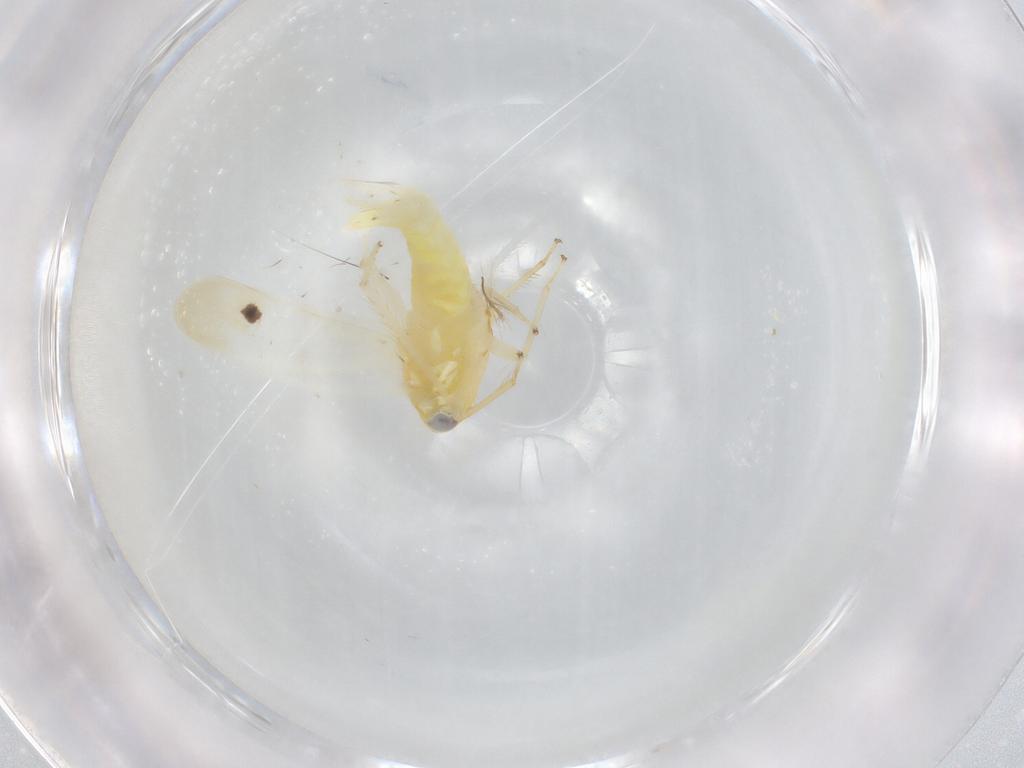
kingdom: Animalia
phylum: Arthropoda
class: Insecta
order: Hemiptera
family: Cicadellidae
